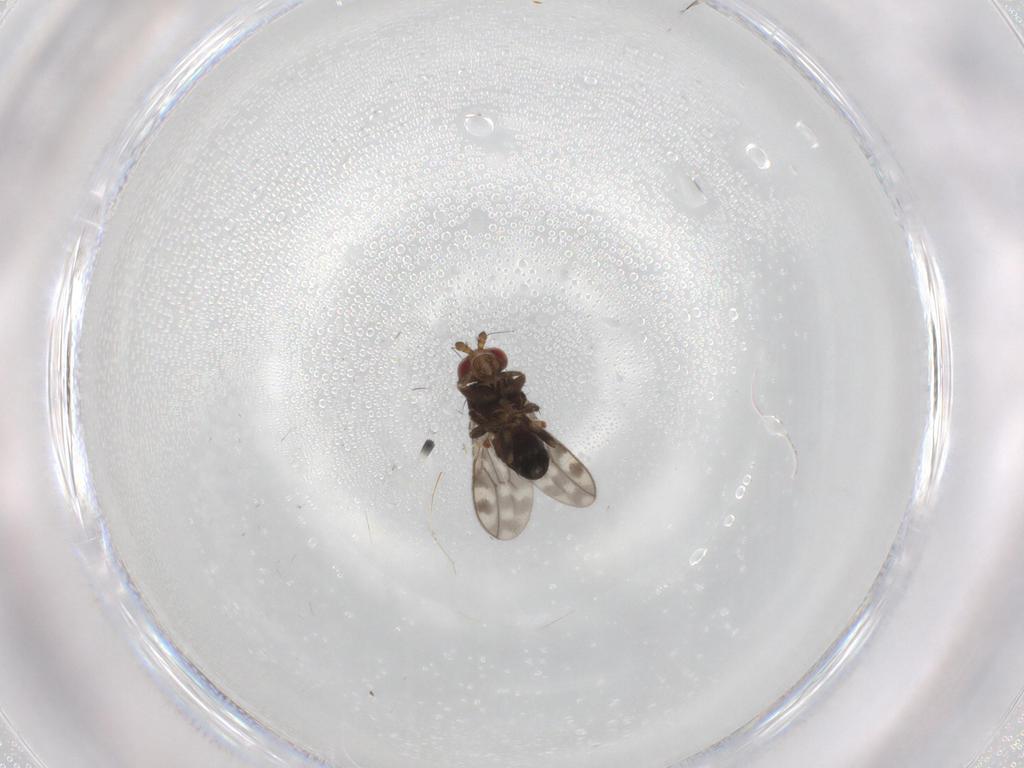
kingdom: Animalia
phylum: Arthropoda
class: Insecta
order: Diptera
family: Sphaeroceridae
